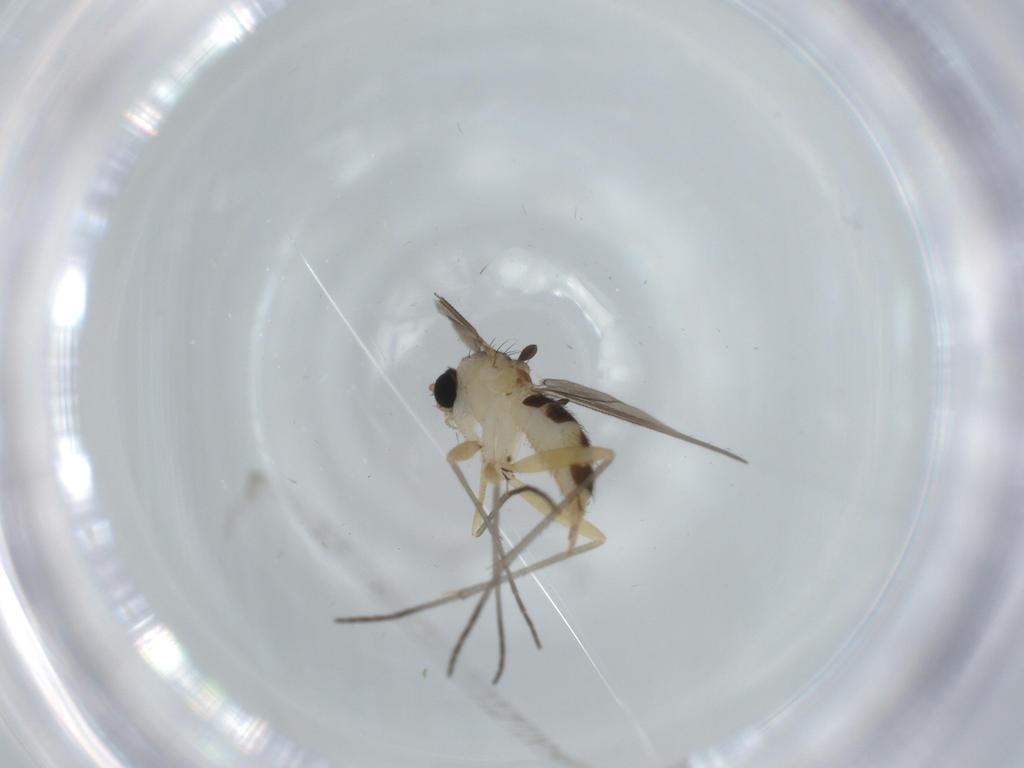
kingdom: Animalia
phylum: Arthropoda
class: Insecta
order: Diptera
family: Sciaridae
